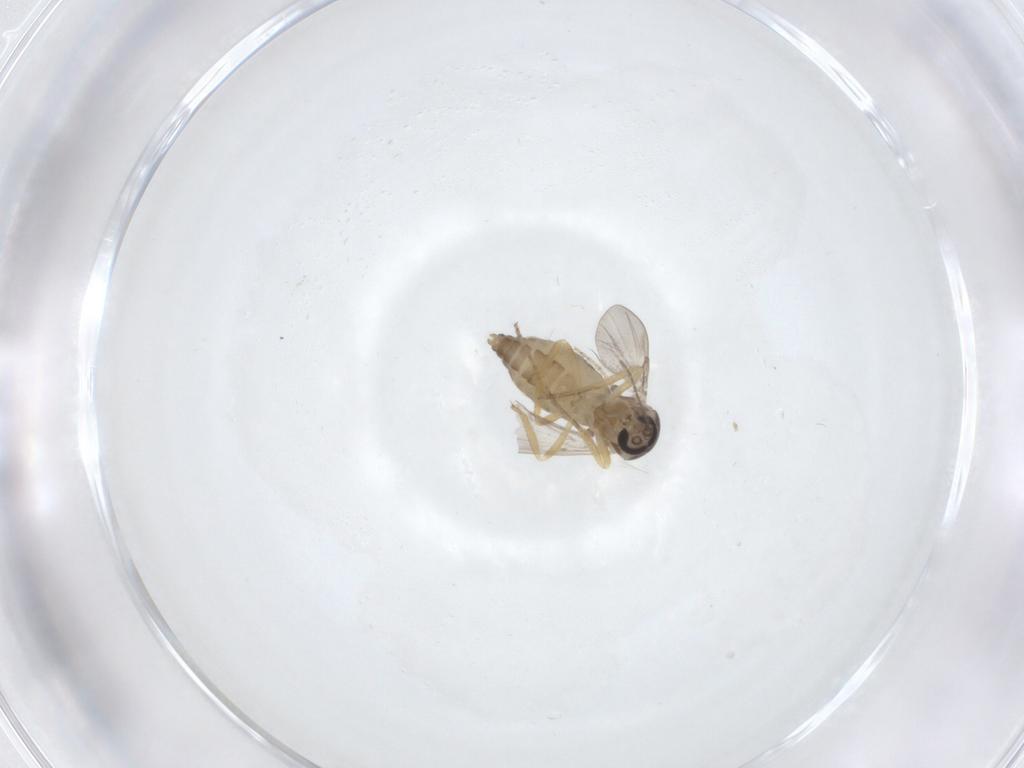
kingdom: Animalia
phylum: Arthropoda
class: Insecta
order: Diptera
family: Ceratopogonidae
